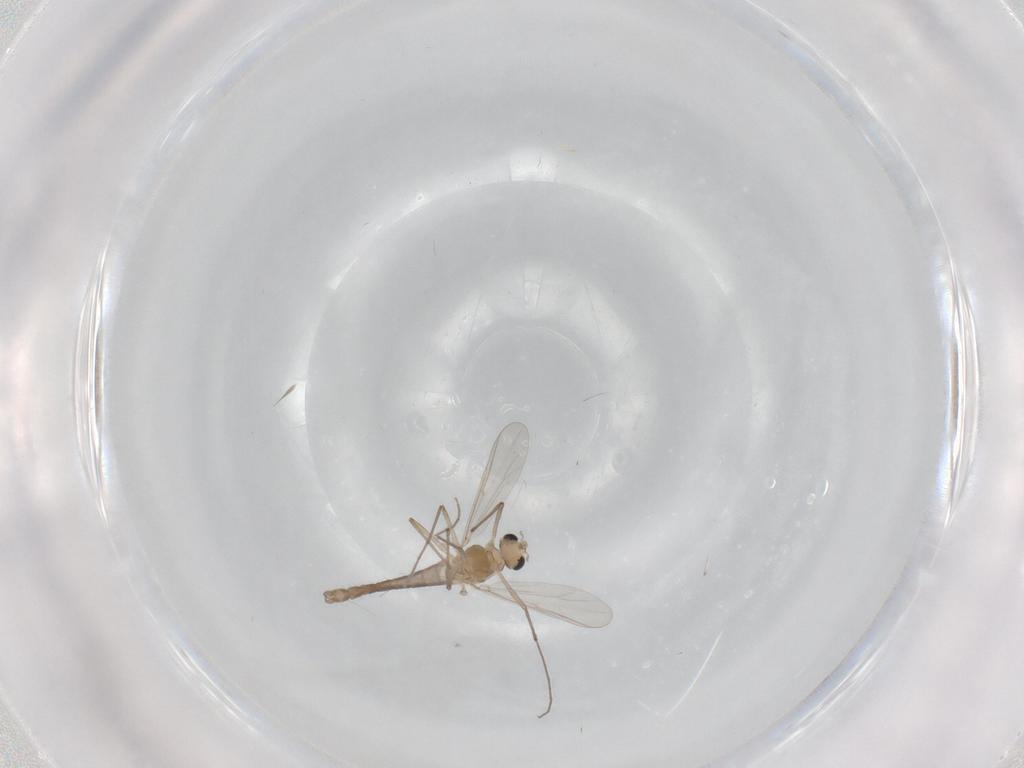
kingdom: Animalia
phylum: Arthropoda
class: Insecta
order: Diptera
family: Chironomidae
